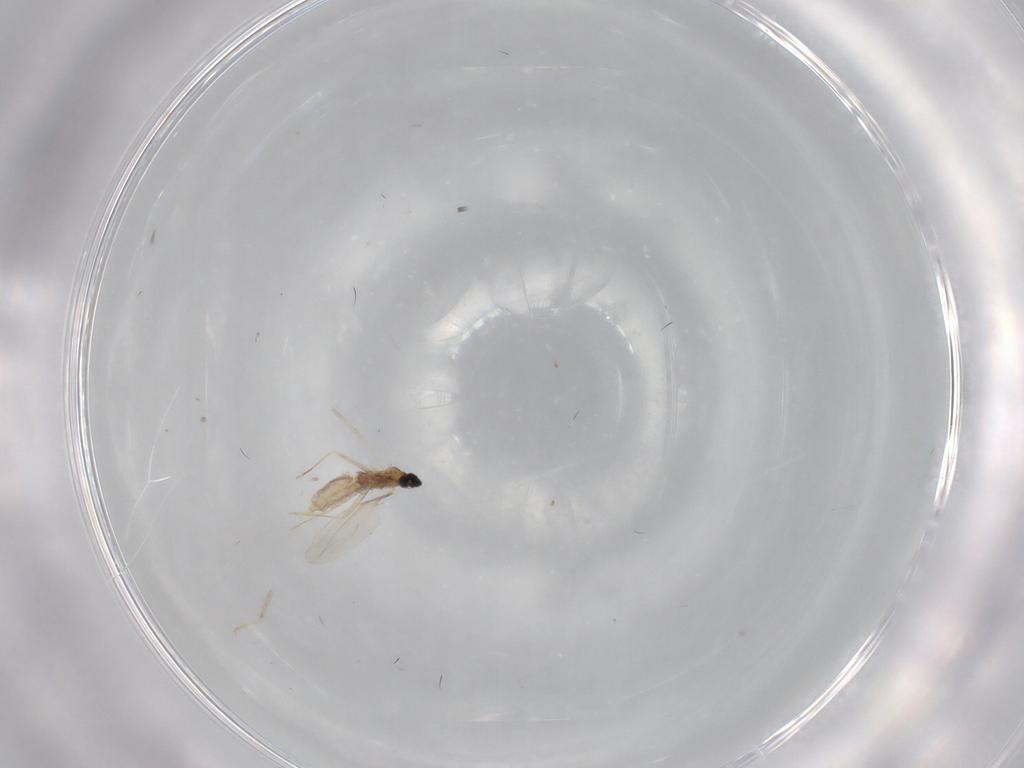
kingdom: Animalia
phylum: Arthropoda
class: Insecta
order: Diptera
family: Cecidomyiidae
